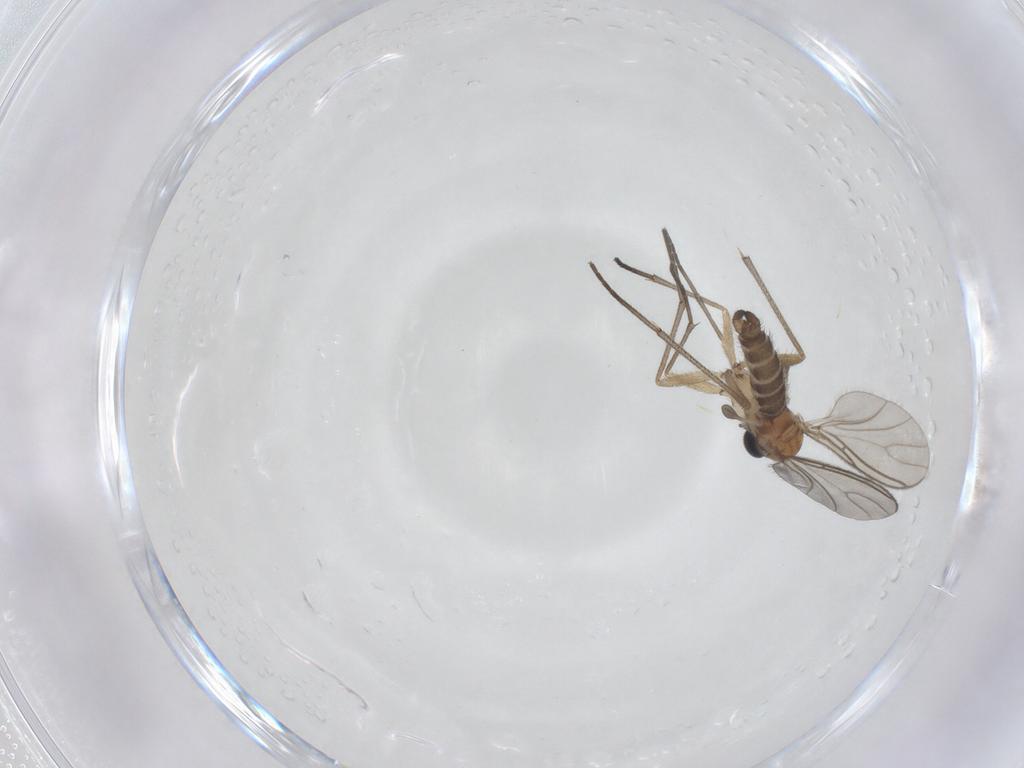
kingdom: Animalia
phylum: Arthropoda
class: Insecta
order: Diptera
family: Sciaridae
